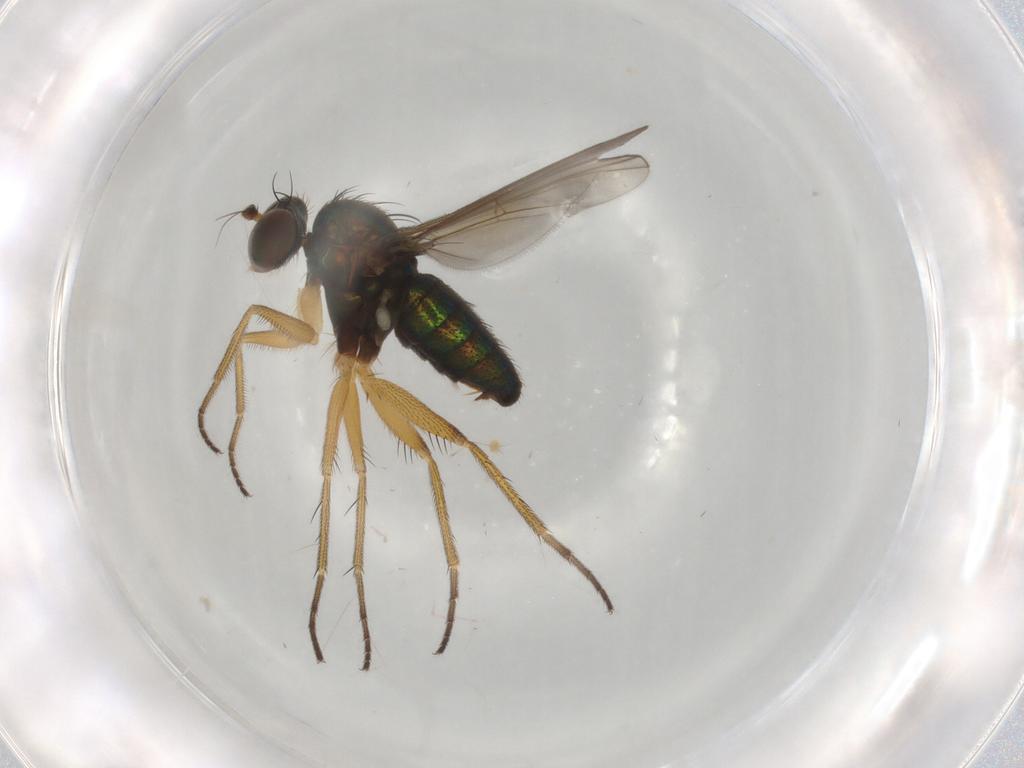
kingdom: Animalia
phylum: Arthropoda
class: Insecta
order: Diptera
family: Cecidomyiidae
